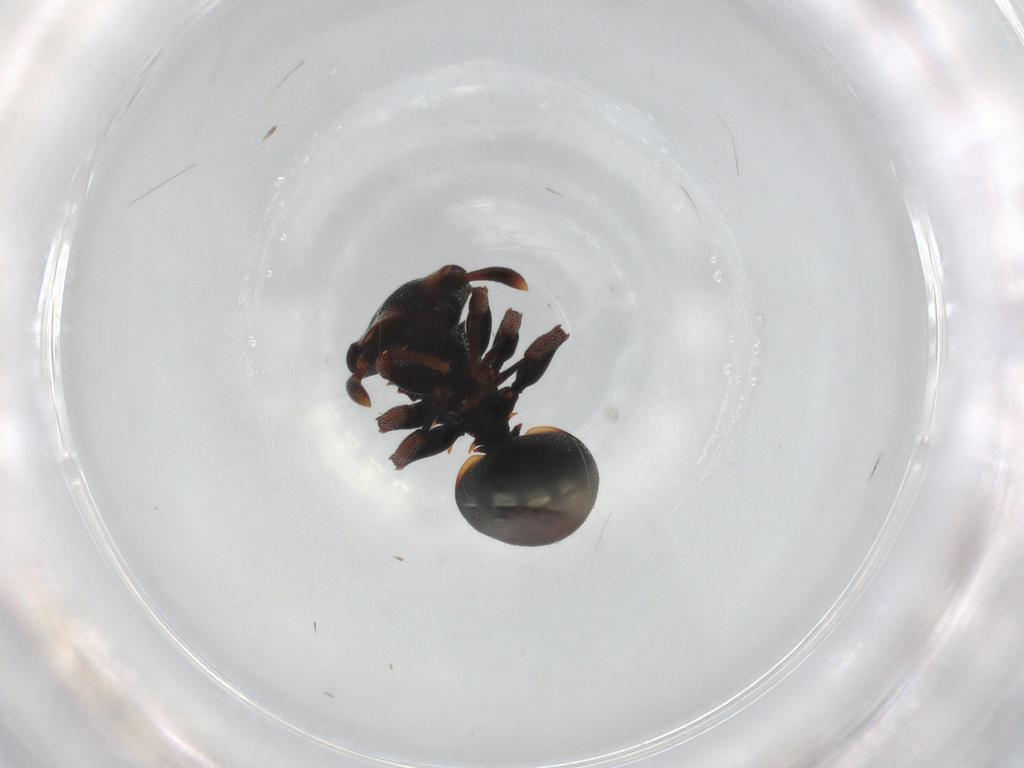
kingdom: Animalia
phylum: Arthropoda
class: Insecta
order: Hymenoptera
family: Formicidae
